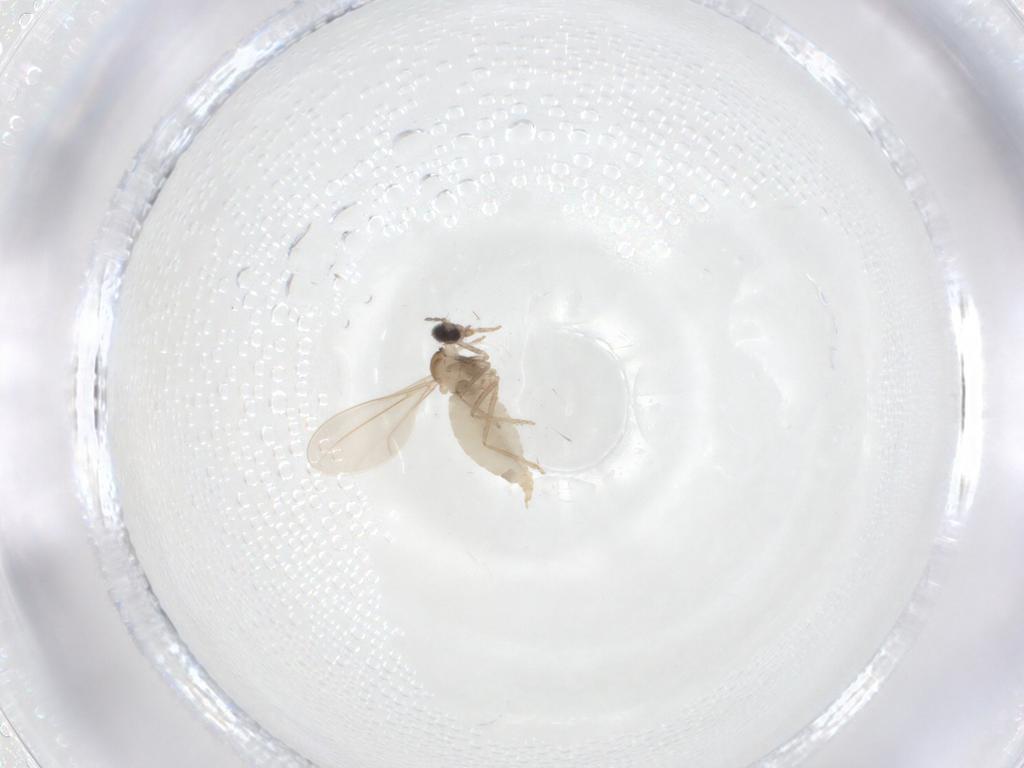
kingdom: Animalia
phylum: Arthropoda
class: Insecta
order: Diptera
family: Cecidomyiidae
